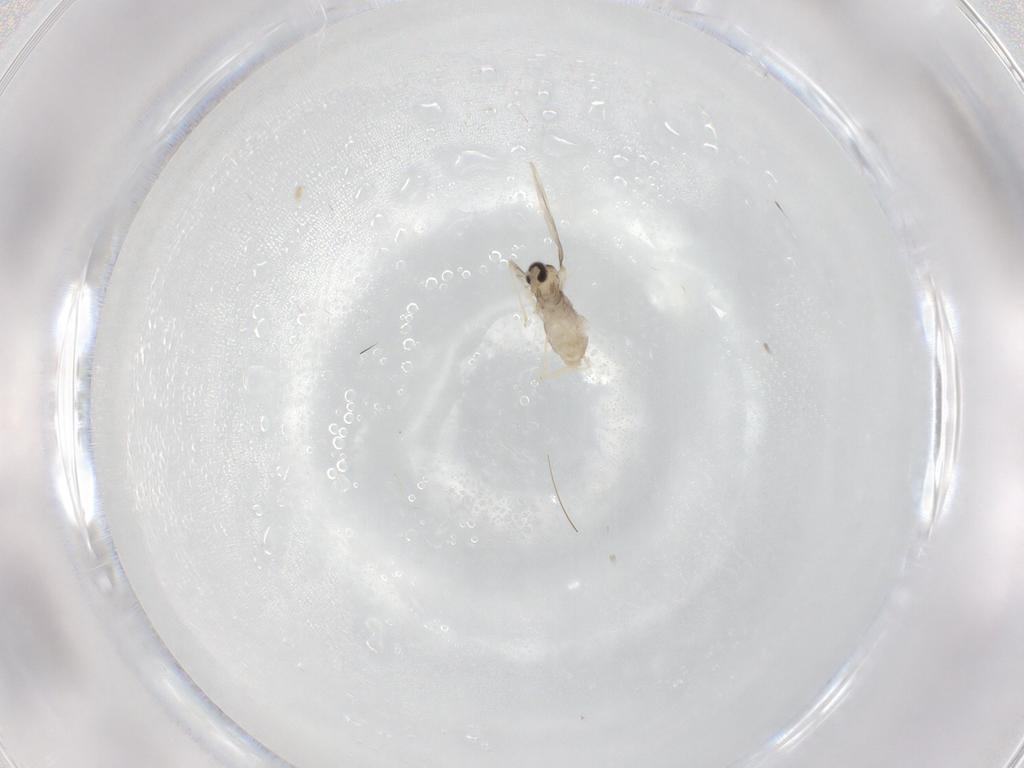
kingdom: Animalia
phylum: Arthropoda
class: Insecta
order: Diptera
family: Cecidomyiidae
